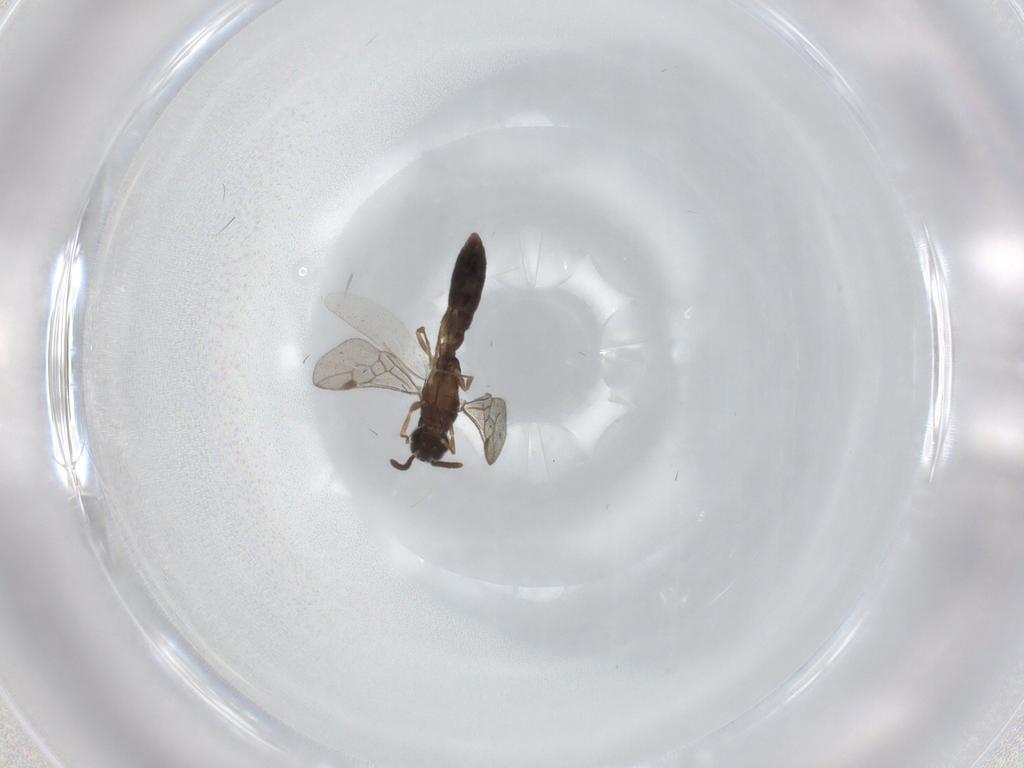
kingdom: Animalia
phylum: Arthropoda
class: Insecta
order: Hymenoptera
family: Formicidae
